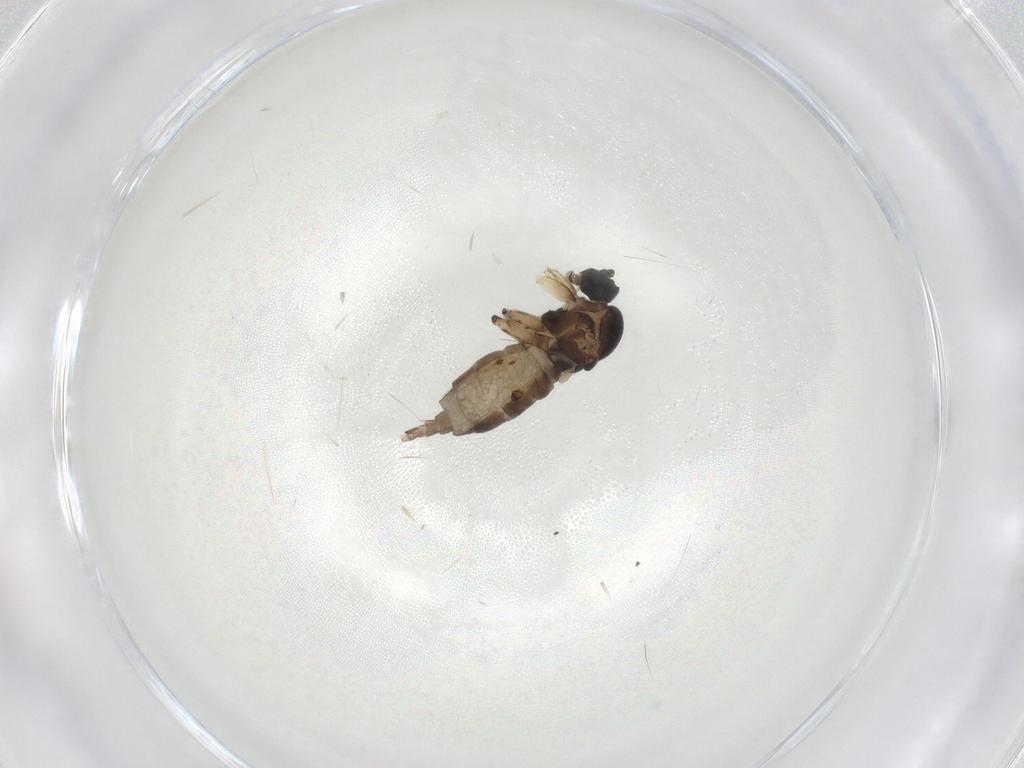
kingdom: Animalia
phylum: Arthropoda
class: Insecta
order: Diptera
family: Chironomidae
